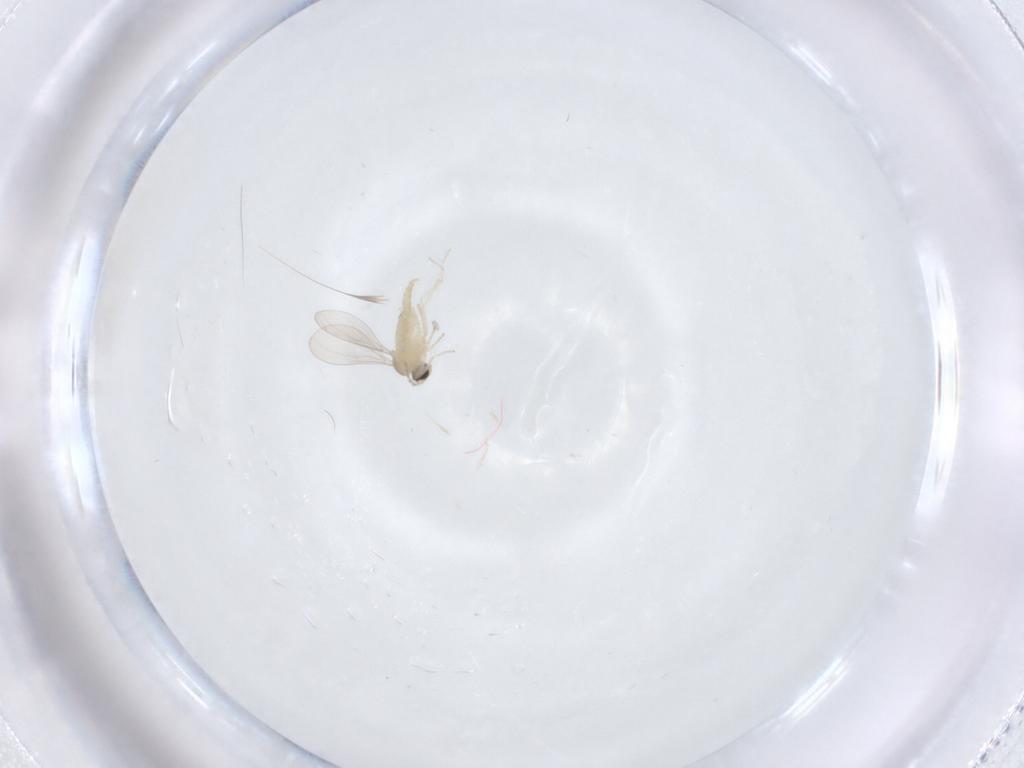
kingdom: Animalia
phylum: Arthropoda
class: Insecta
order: Diptera
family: Cecidomyiidae
